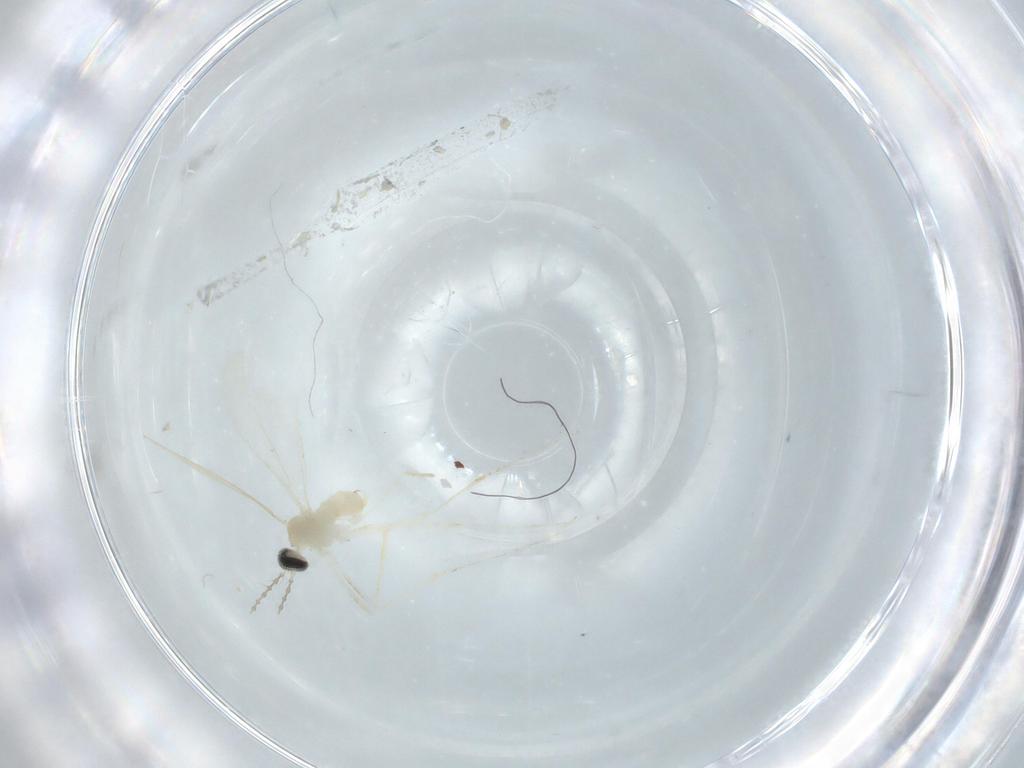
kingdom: Animalia
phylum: Arthropoda
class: Insecta
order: Diptera
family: Cecidomyiidae
